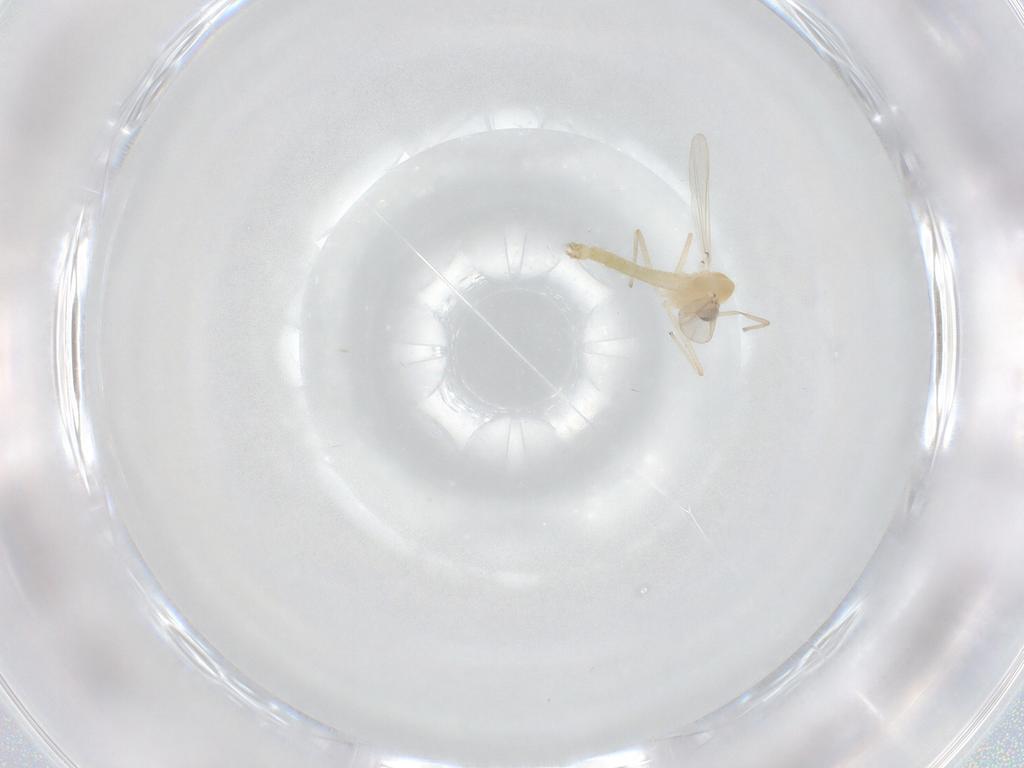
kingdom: Animalia
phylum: Arthropoda
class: Insecta
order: Diptera
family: Chironomidae
